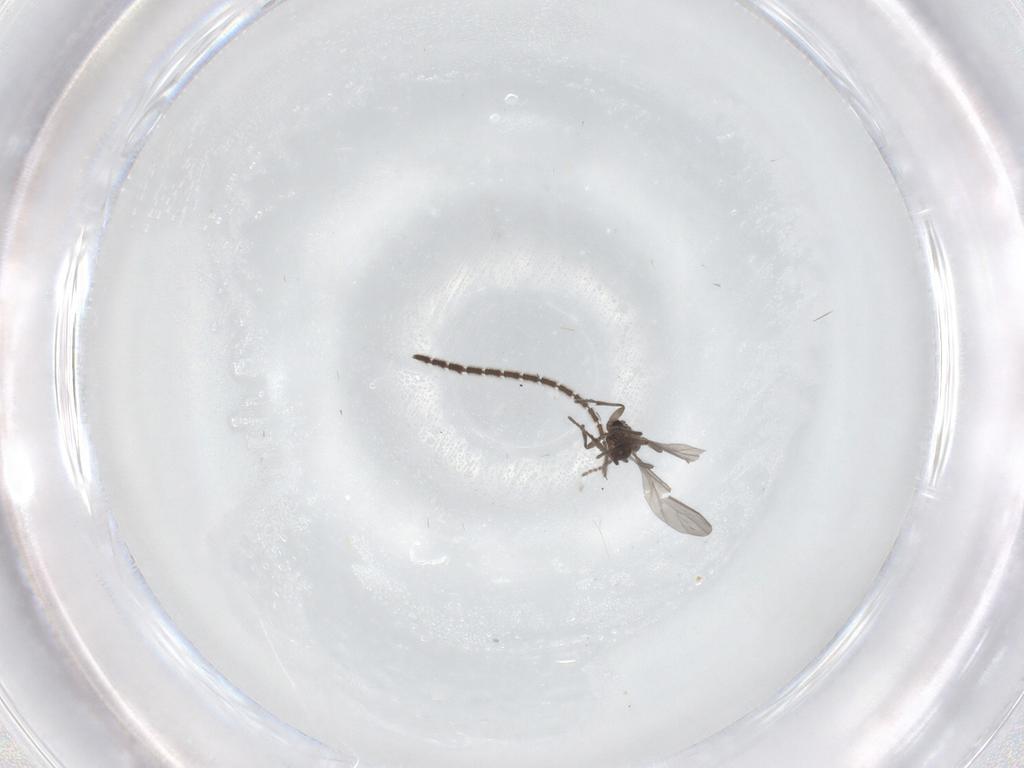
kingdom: Animalia
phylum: Arthropoda
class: Insecta
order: Diptera
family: Sciaridae
